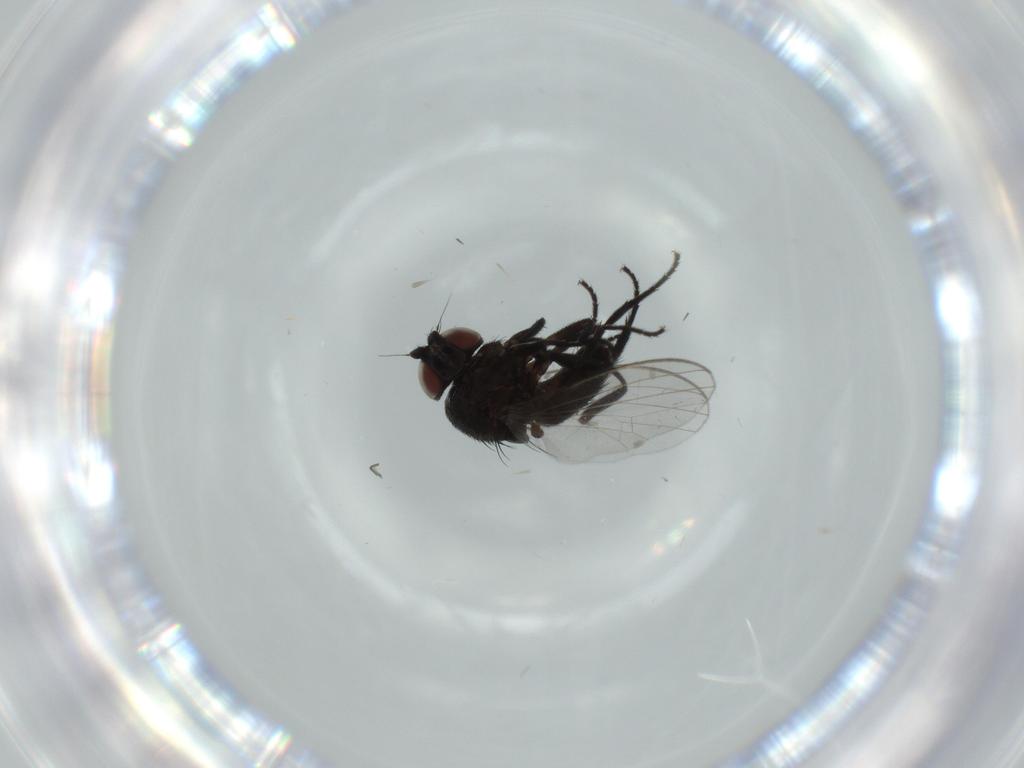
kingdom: Animalia
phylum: Arthropoda
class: Insecta
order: Diptera
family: Milichiidae
